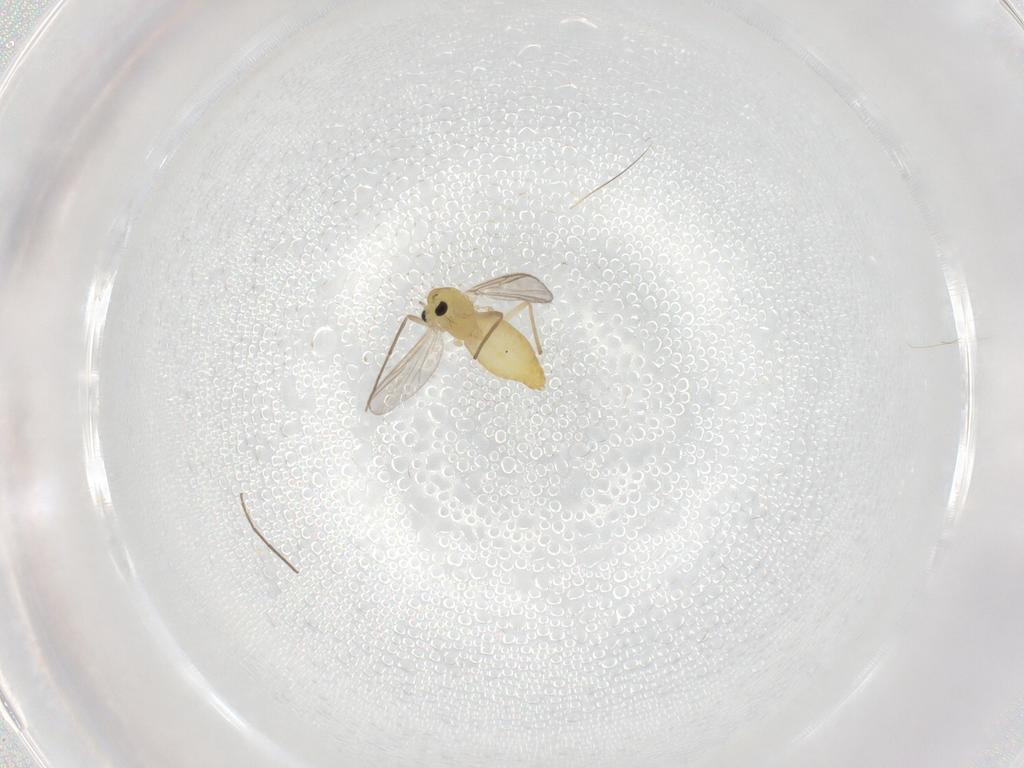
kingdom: Animalia
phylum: Arthropoda
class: Insecta
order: Diptera
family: Chironomidae
